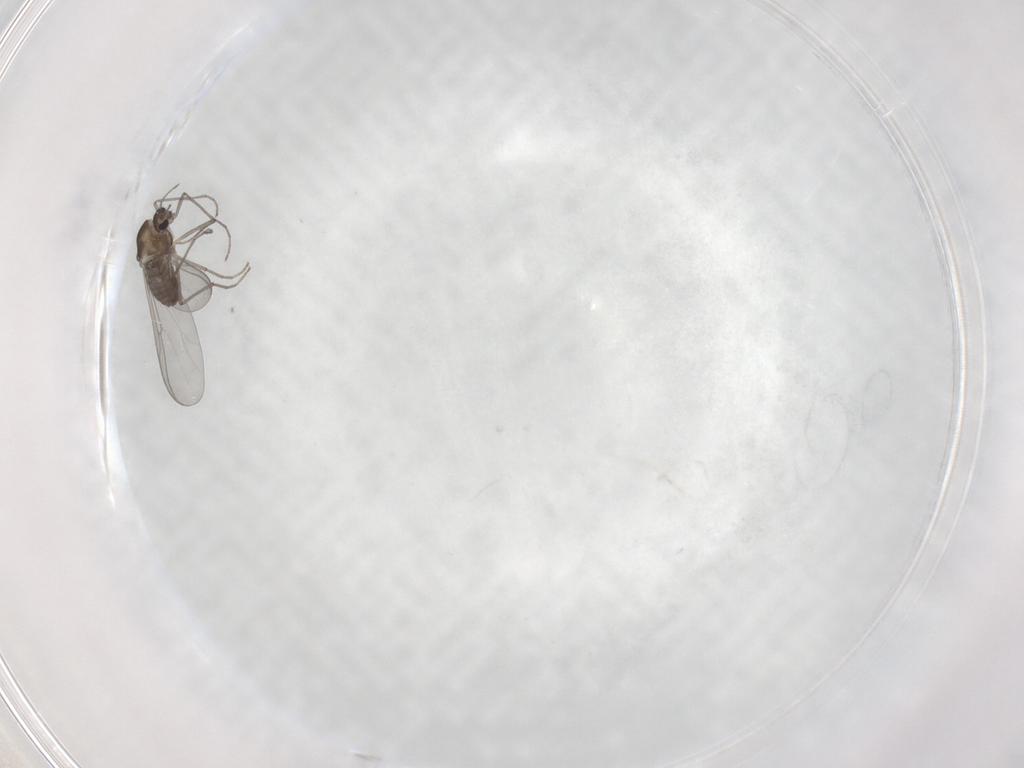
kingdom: Animalia
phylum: Arthropoda
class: Insecta
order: Diptera
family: Chironomidae
